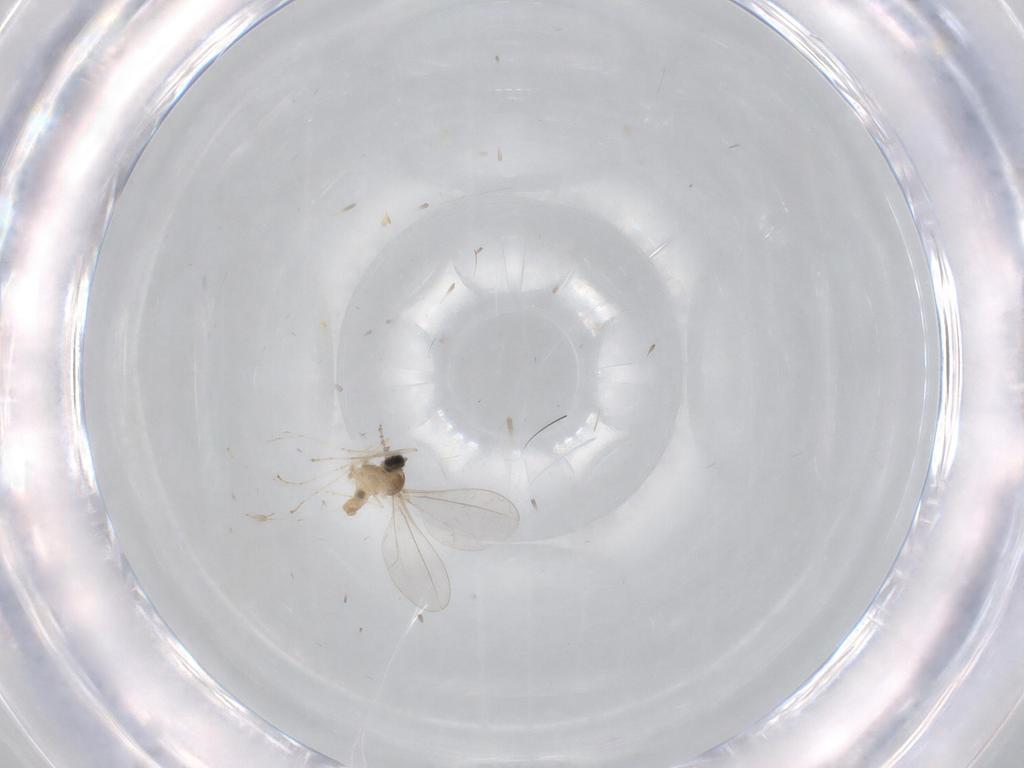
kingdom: Animalia
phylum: Arthropoda
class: Insecta
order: Diptera
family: Cecidomyiidae
